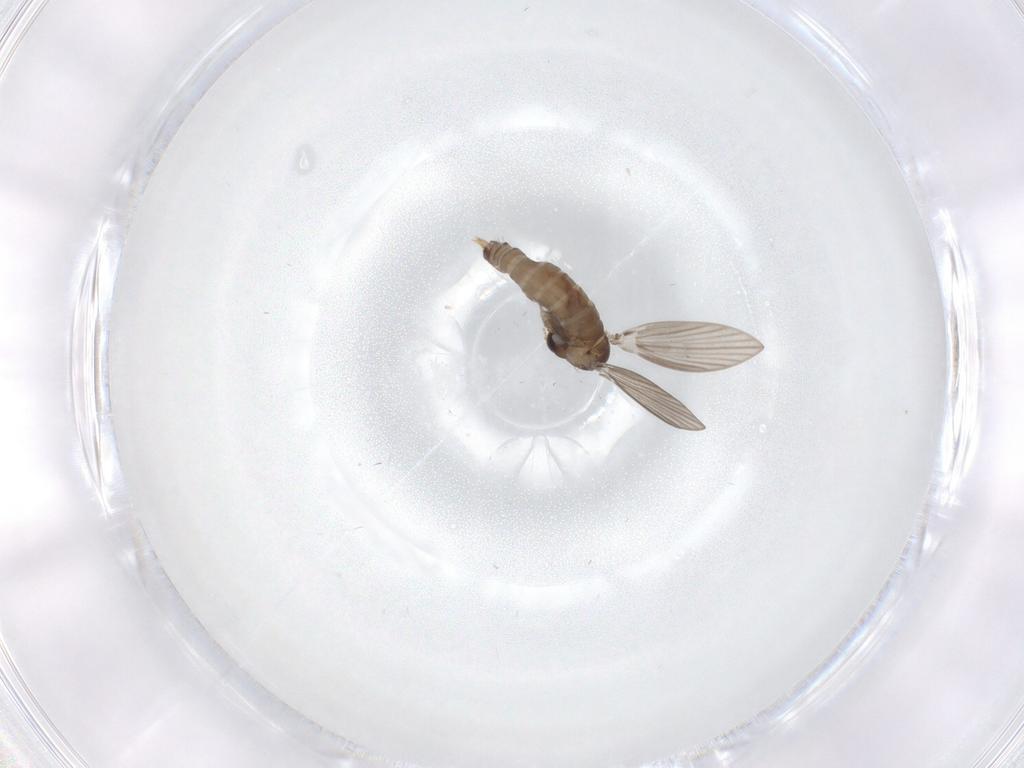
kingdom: Animalia
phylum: Arthropoda
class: Insecta
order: Diptera
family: Psychodidae
